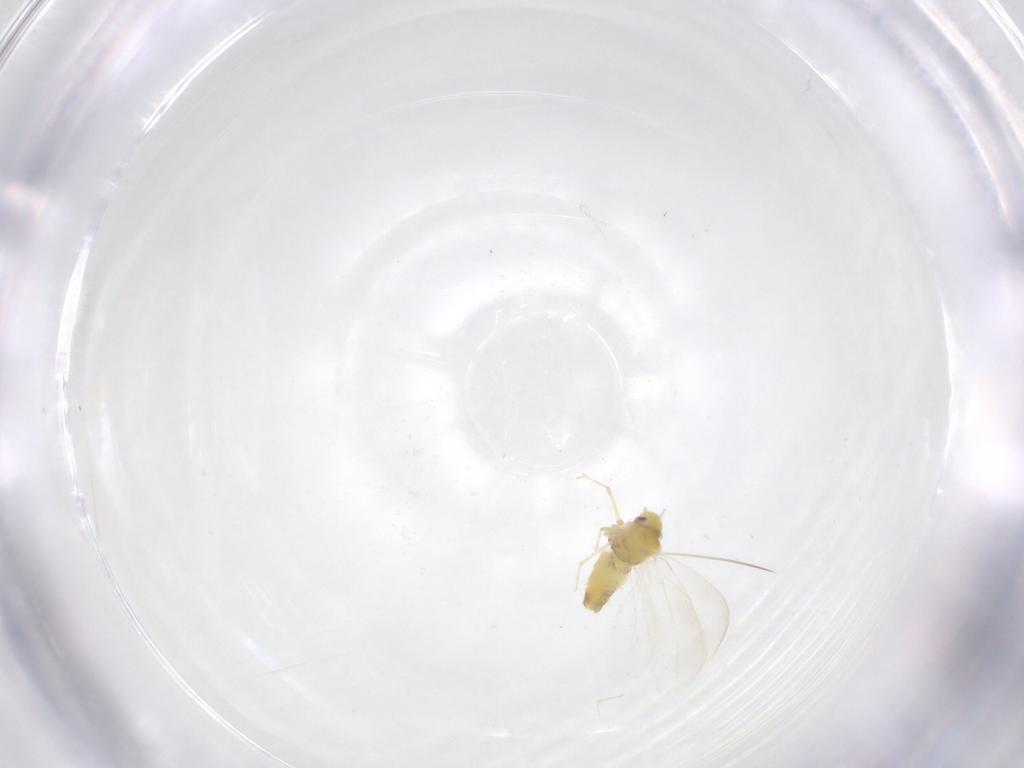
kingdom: Animalia
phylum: Arthropoda
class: Insecta
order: Hemiptera
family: Aleyrodidae
